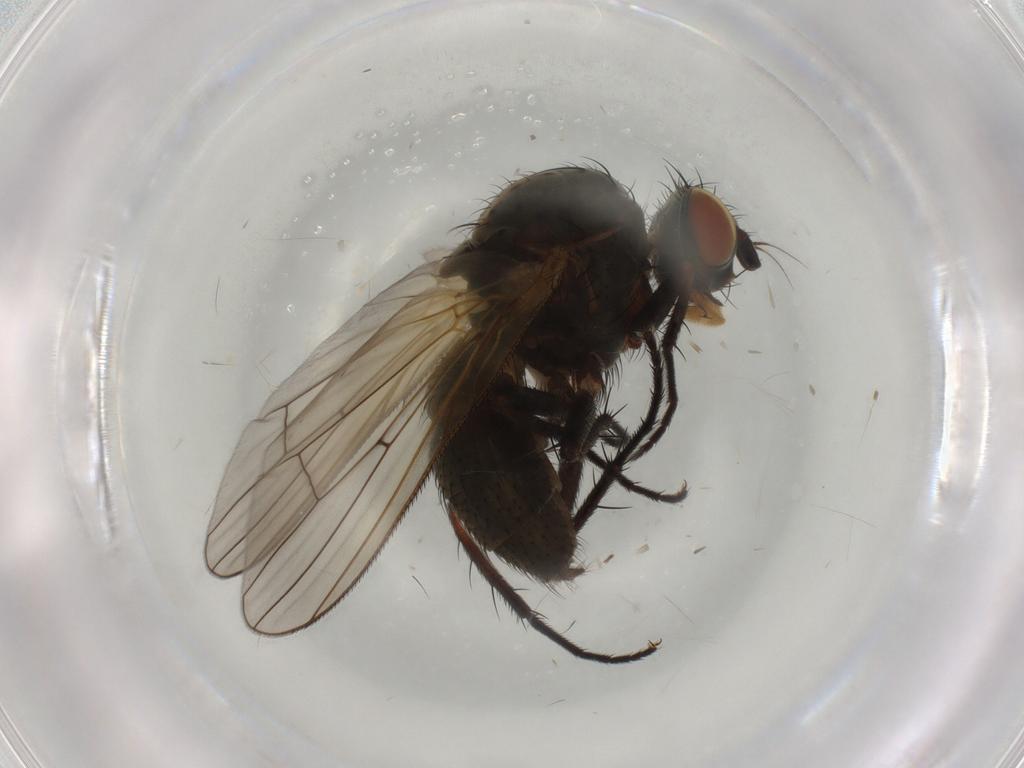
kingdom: Animalia
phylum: Arthropoda
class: Insecta
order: Diptera
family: Anthomyiidae
